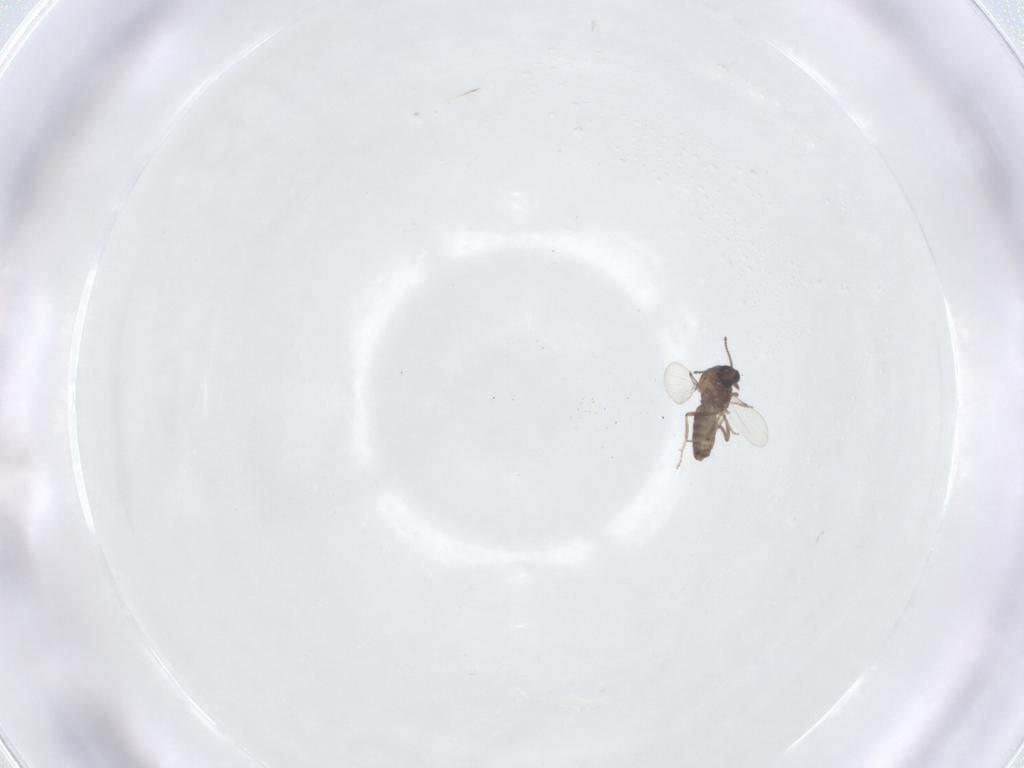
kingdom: Animalia
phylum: Arthropoda
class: Insecta
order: Diptera
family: Ceratopogonidae
